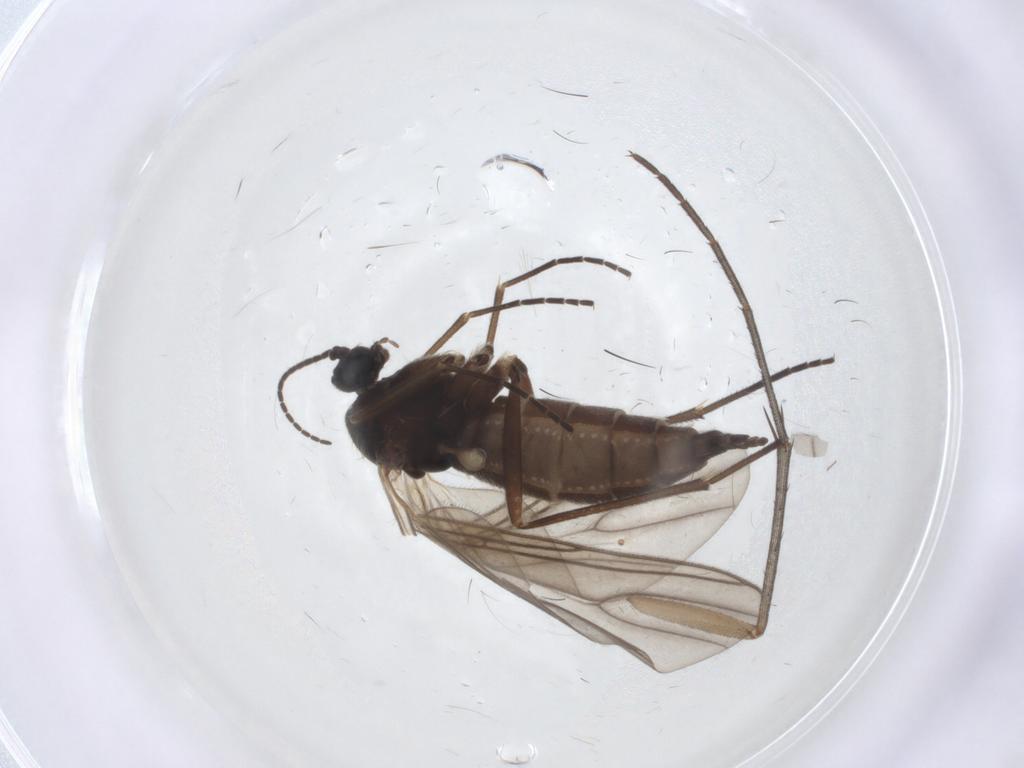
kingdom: Animalia
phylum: Arthropoda
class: Insecta
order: Diptera
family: Sciaridae
